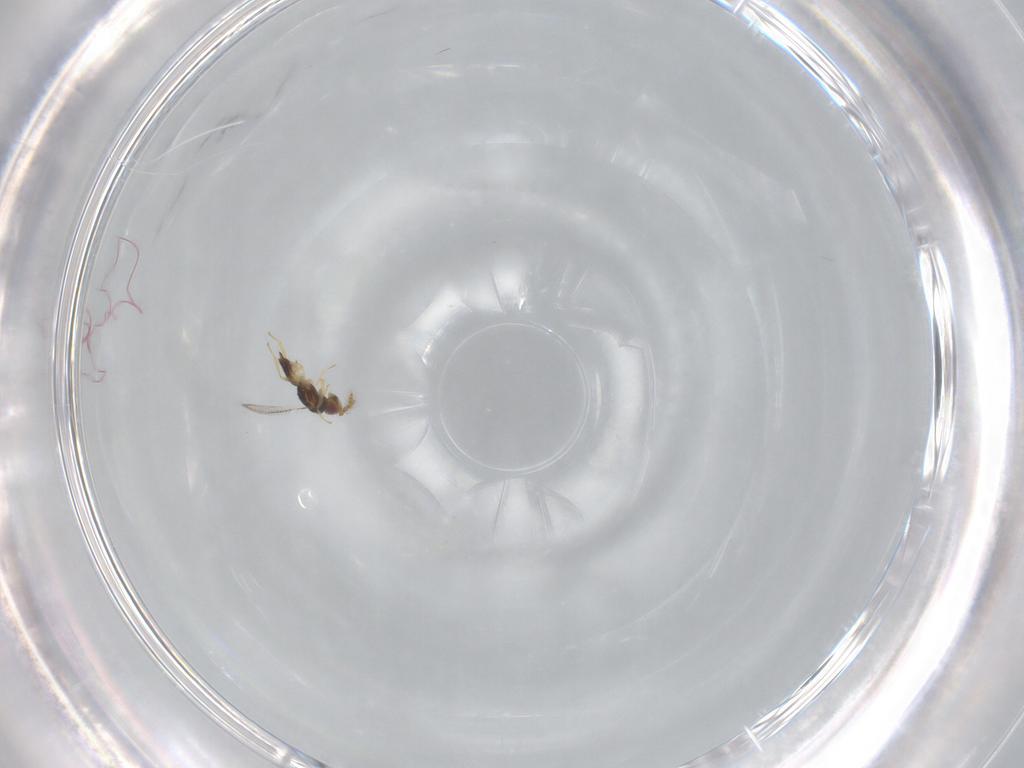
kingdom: Animalia
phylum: Arthropoda
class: Insecta
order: Hymenoptera
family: Eulophidae
